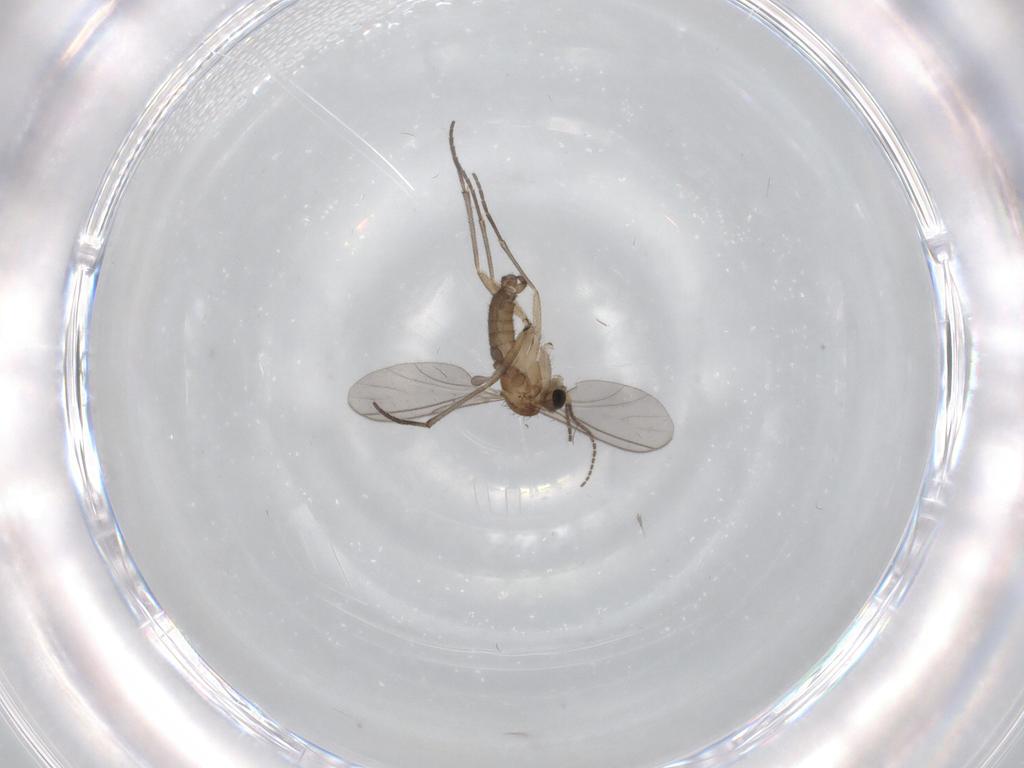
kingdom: Animalia
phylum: Arthropoda
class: Insecta
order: Diptera
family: Sciaridae
